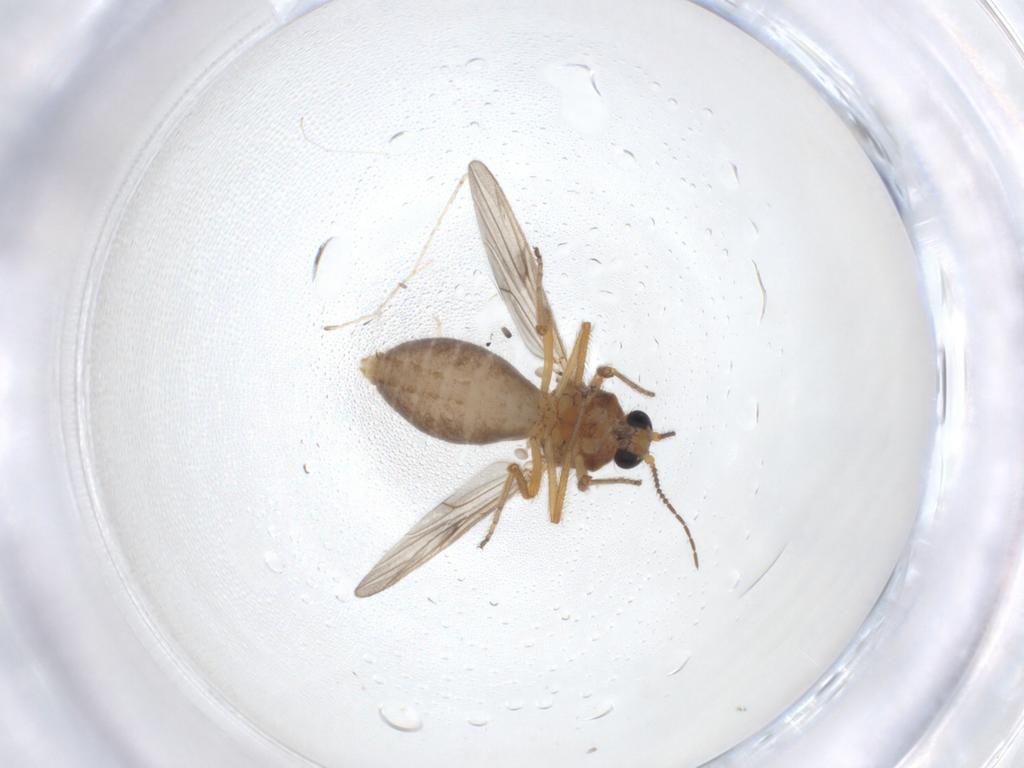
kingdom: Animalia
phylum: Arthropoda
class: Insecta
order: Diptera
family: Ceratopogonidae
